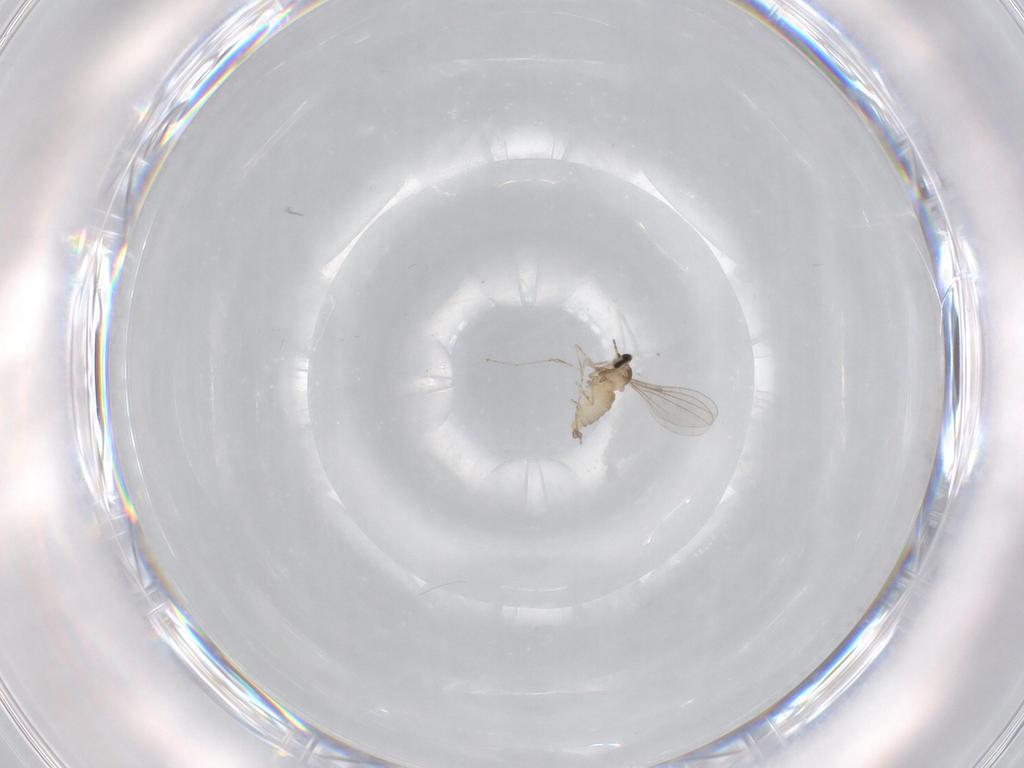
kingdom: Animalia
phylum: Arthropoda
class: Insecta
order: Diptera
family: Cecidomyiidae
